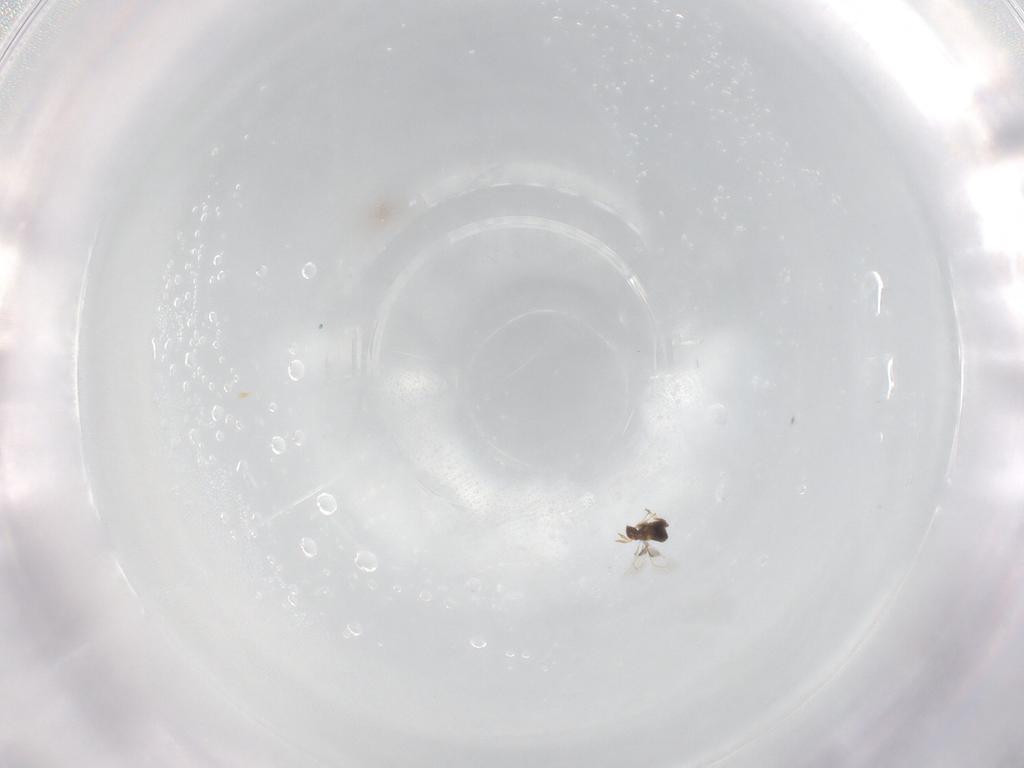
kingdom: Animalia
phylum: Arthropoda
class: Insecta
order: Hymenoptera
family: Trichogrammatidae
